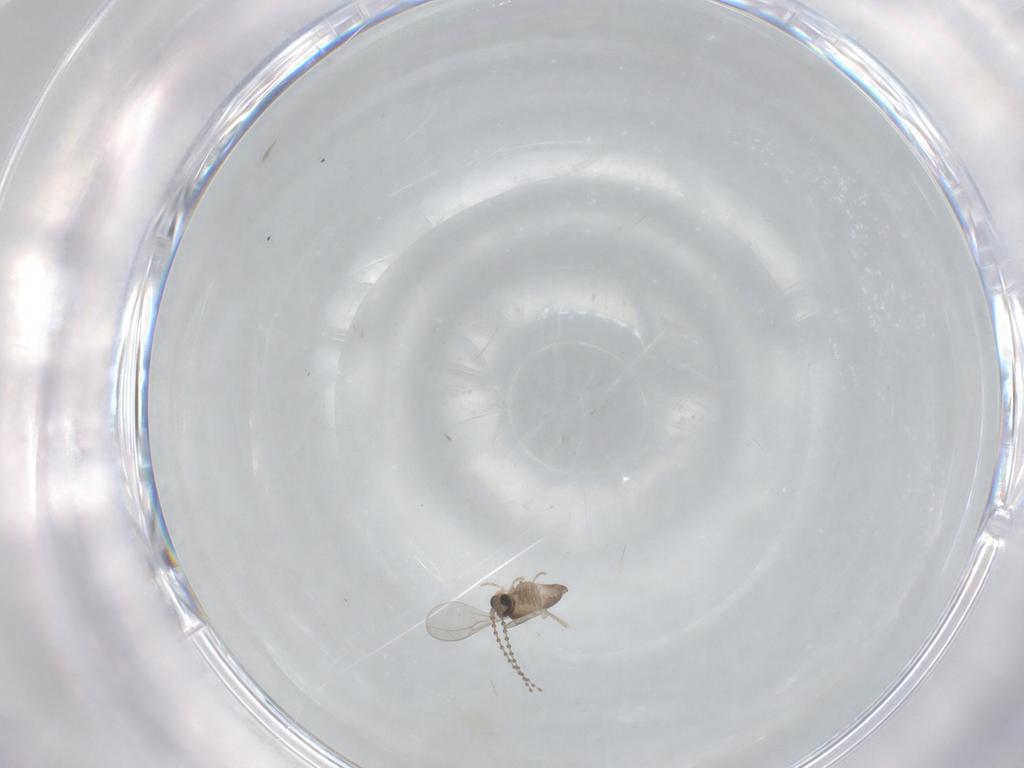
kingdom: Animalia
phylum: Arthropoda
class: Insecta
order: Diptera
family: Cecidomyiidae
